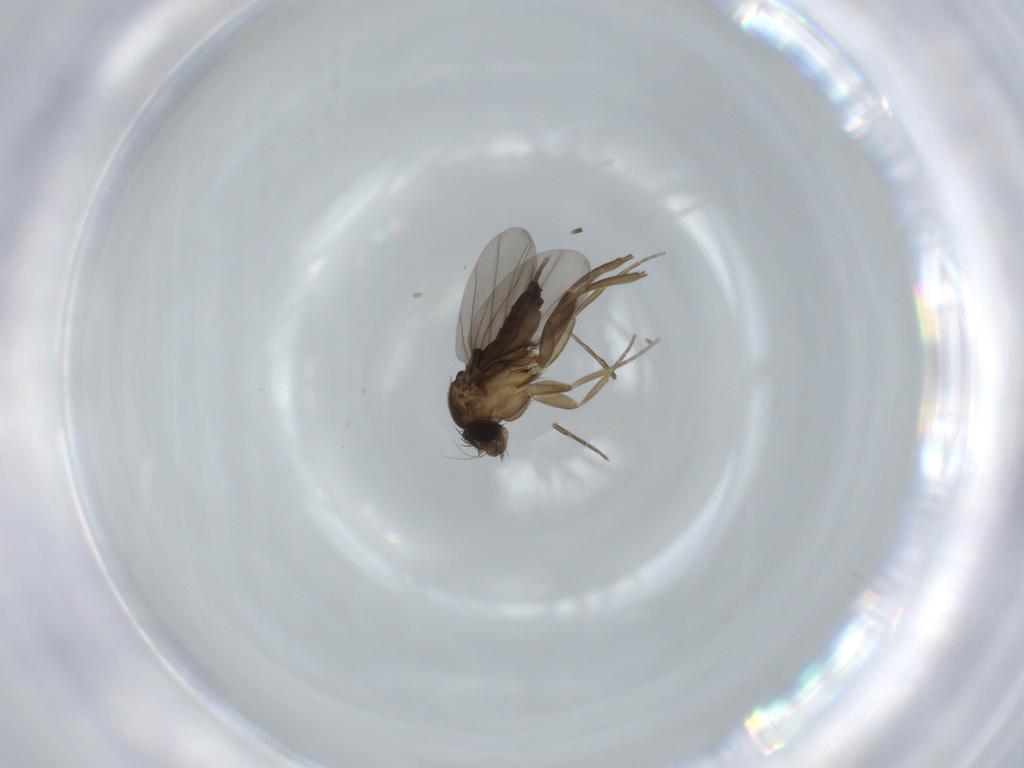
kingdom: Animalia
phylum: Arthropoda
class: Insecta
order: Diptera
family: Phoridae
